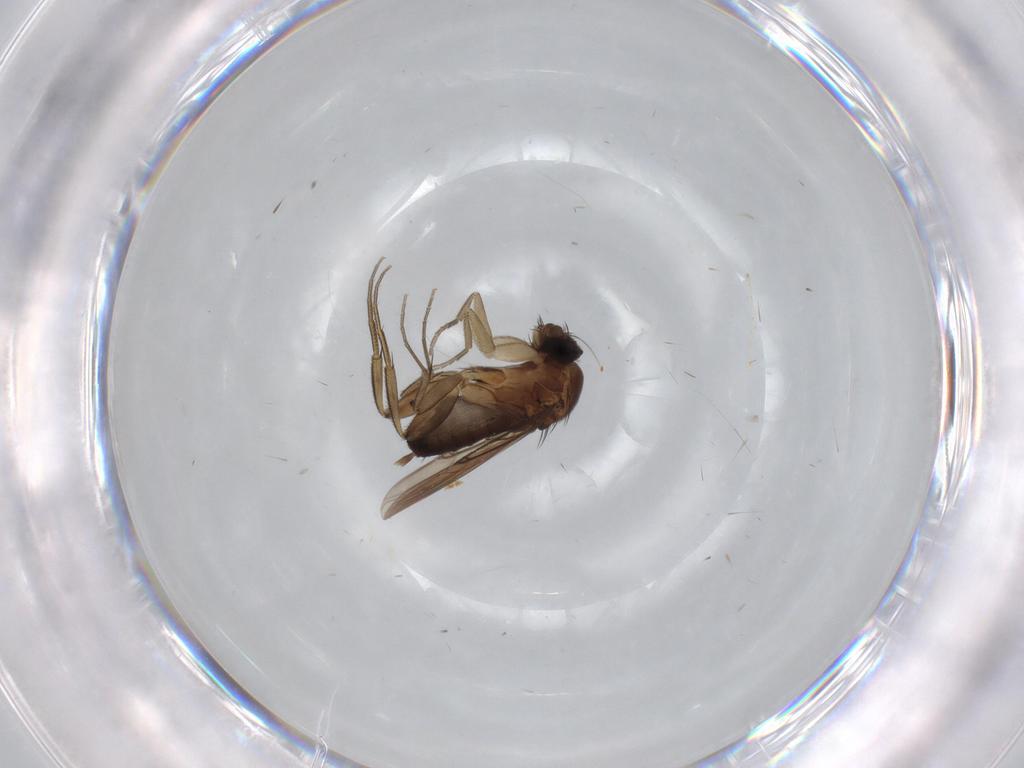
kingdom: Animalia
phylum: Arthropoda
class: Insecta
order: Diptera
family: Phoridae
